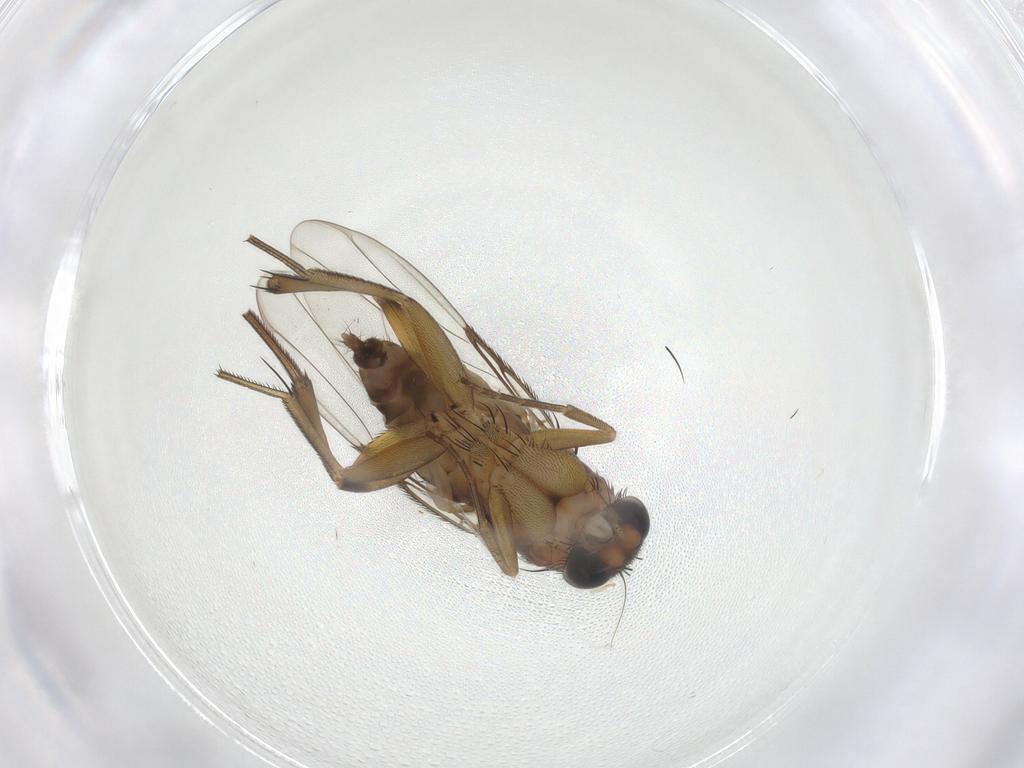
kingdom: Animalia
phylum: Arthropoda
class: Insecta
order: Diptera
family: Phoridae
